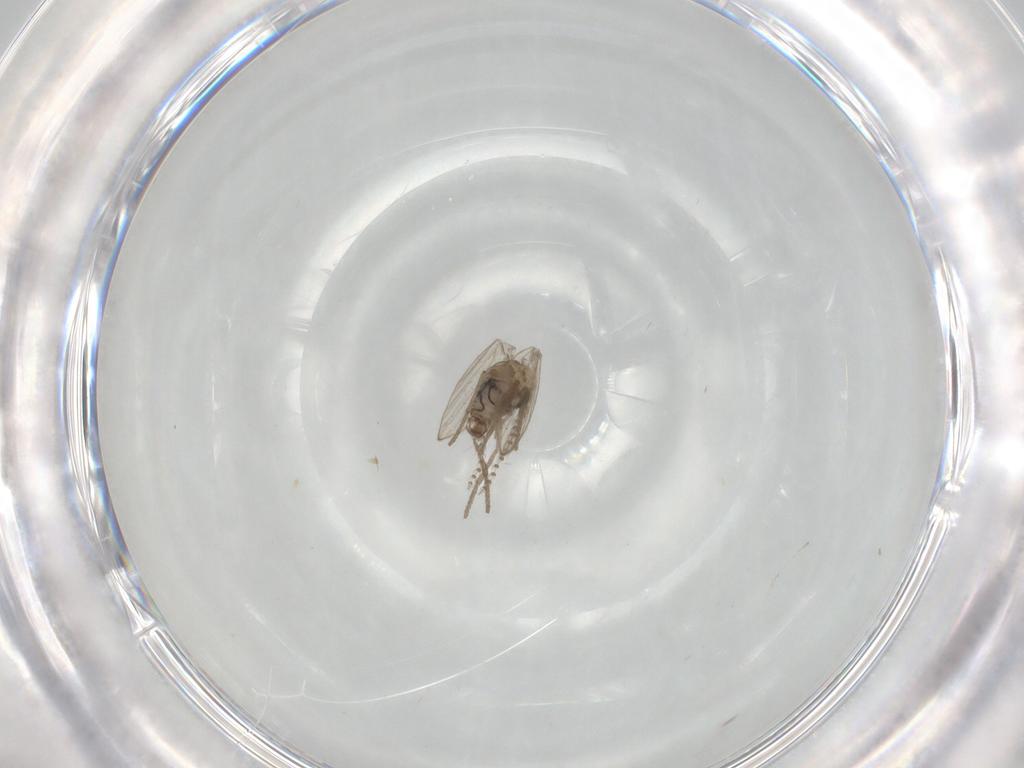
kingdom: Animalia
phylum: Arthropoda
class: Insecta
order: Diptera
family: Psychodidae
